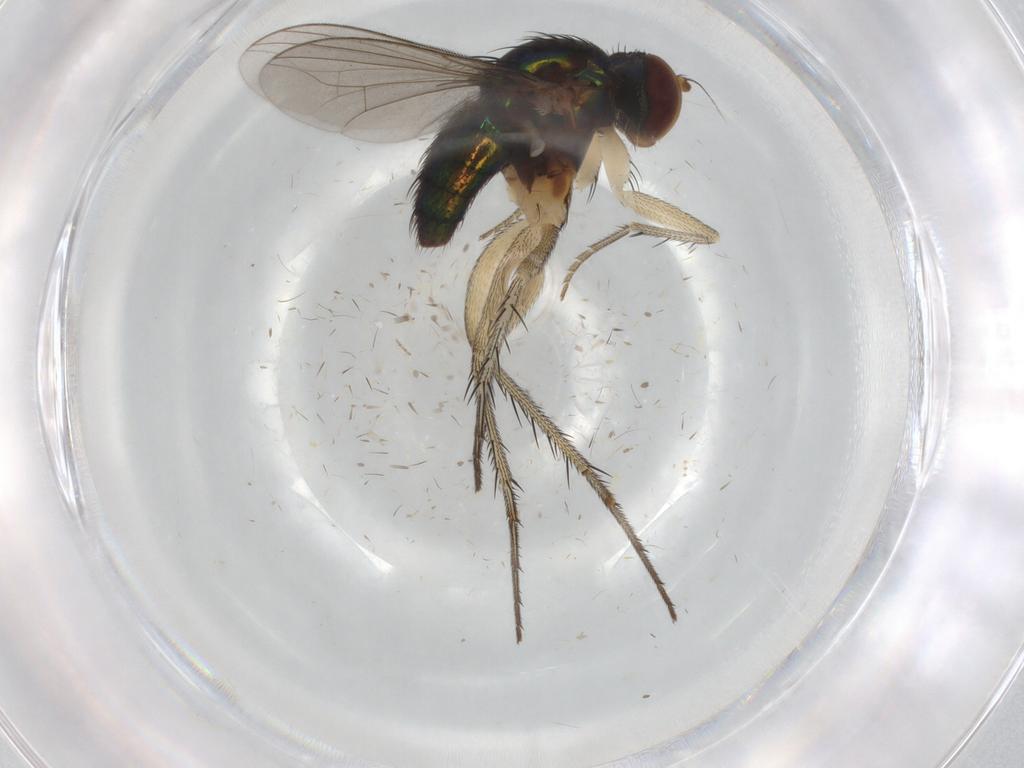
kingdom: Animalia
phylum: Arthropoda
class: Insecta
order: Diptera
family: Dolichopodidae
